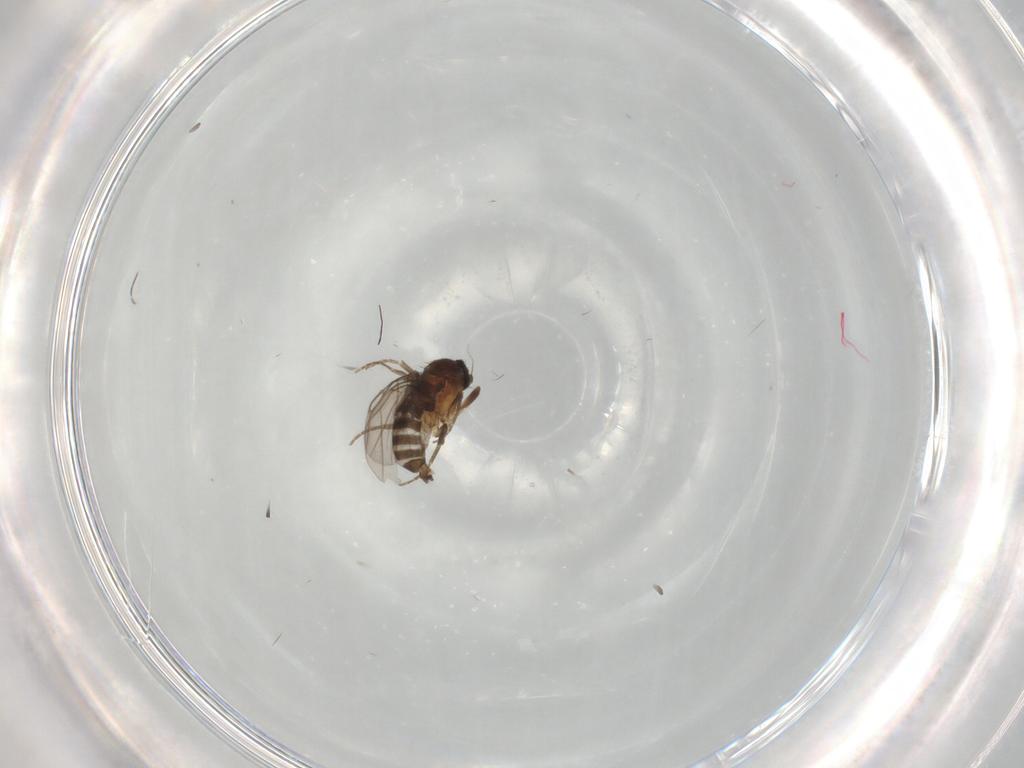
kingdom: Animalia
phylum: Arthropoda
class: Insecta
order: Diptera
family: Phoridae
